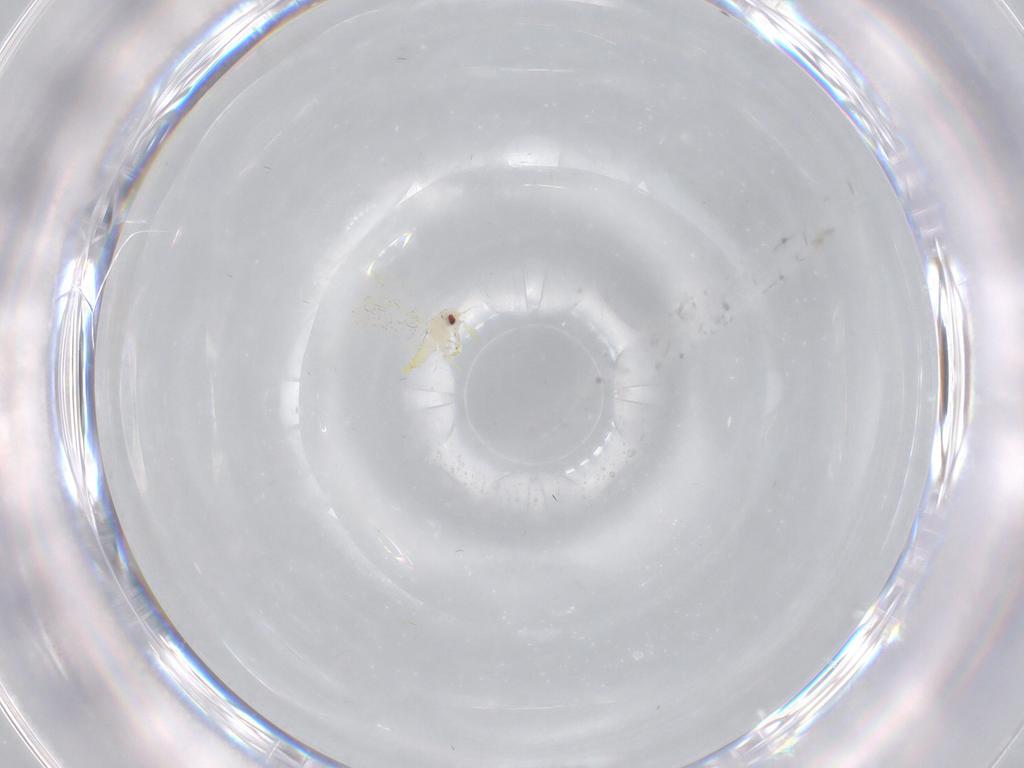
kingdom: Animalia
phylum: Arthropoda
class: Insecta
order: Hemiptera
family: Aleyrodidae
